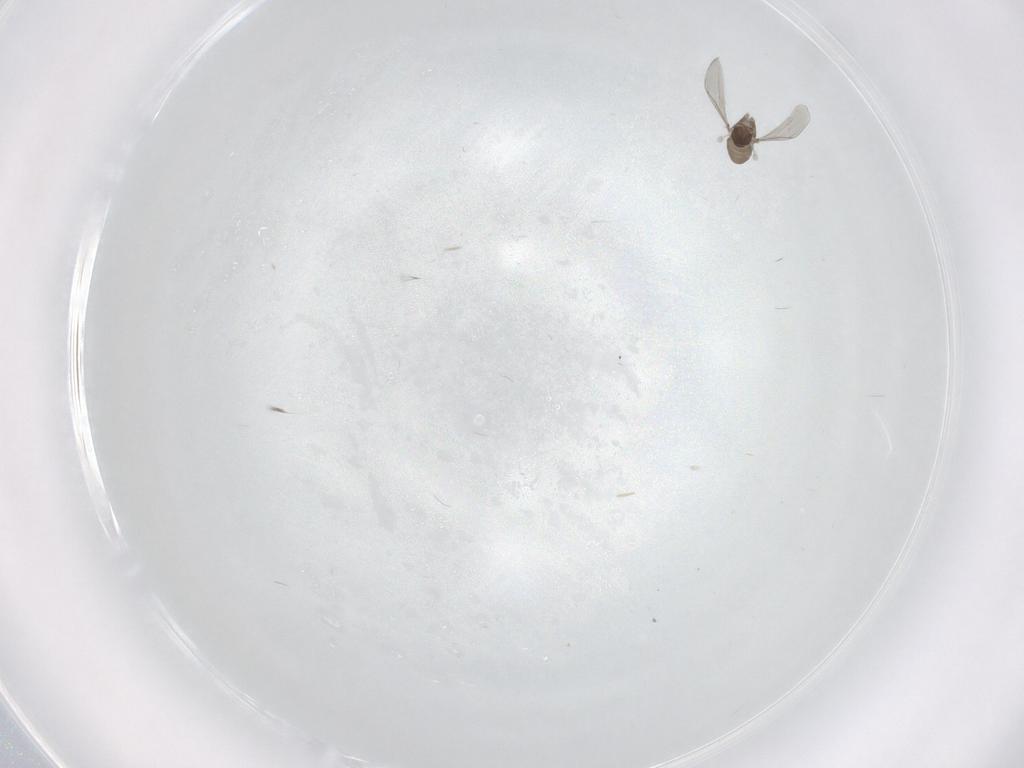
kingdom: Animalia
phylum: Arthropoda
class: Insecta
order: Diptera
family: Cecidomyiidae
